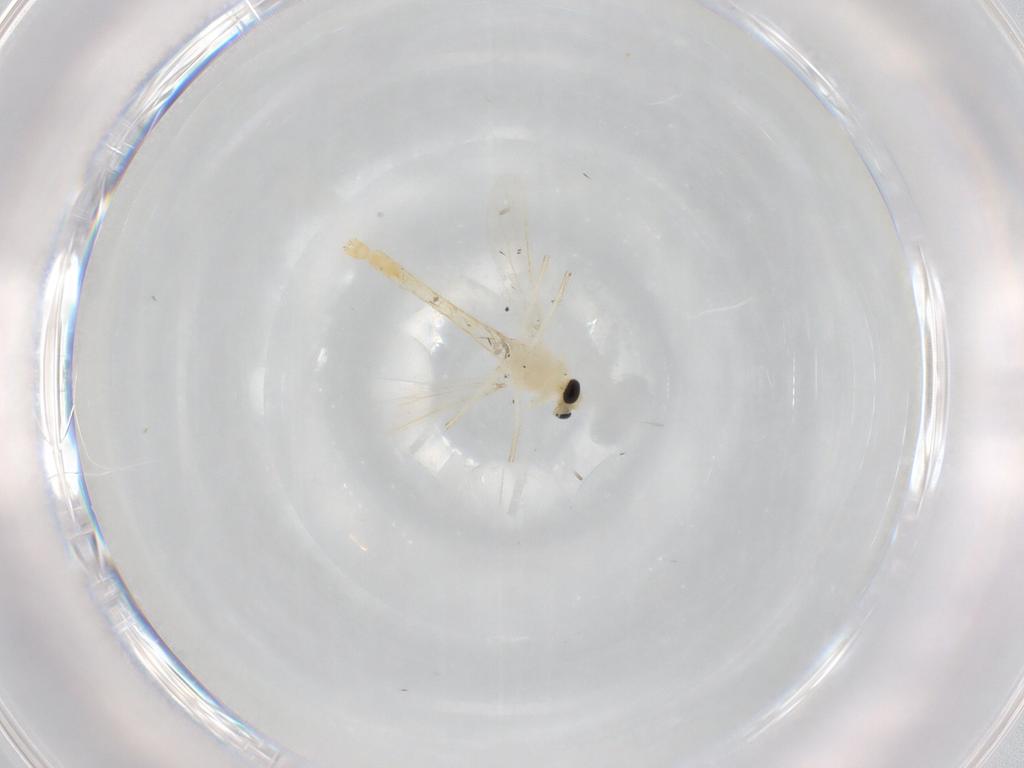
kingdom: Animalia
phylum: Arthropoda
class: Insecta
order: Diptera
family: Chironomidae
